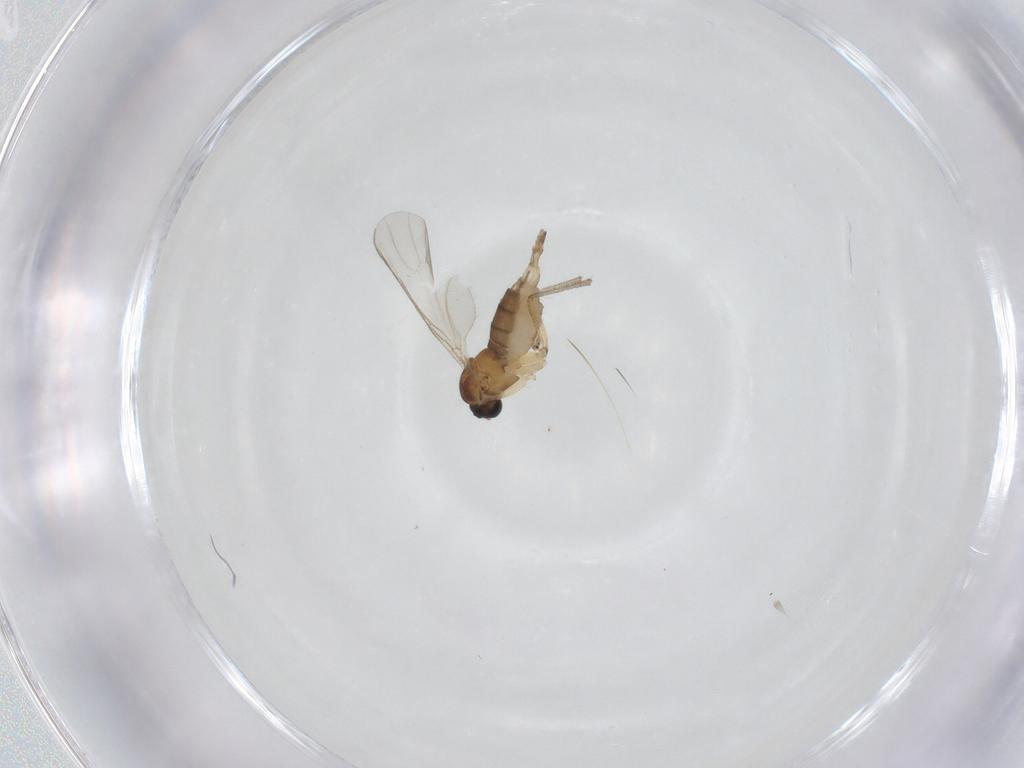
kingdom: Animalia
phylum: Arthropoda
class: Insecta
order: Diptera
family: Sciaridae
